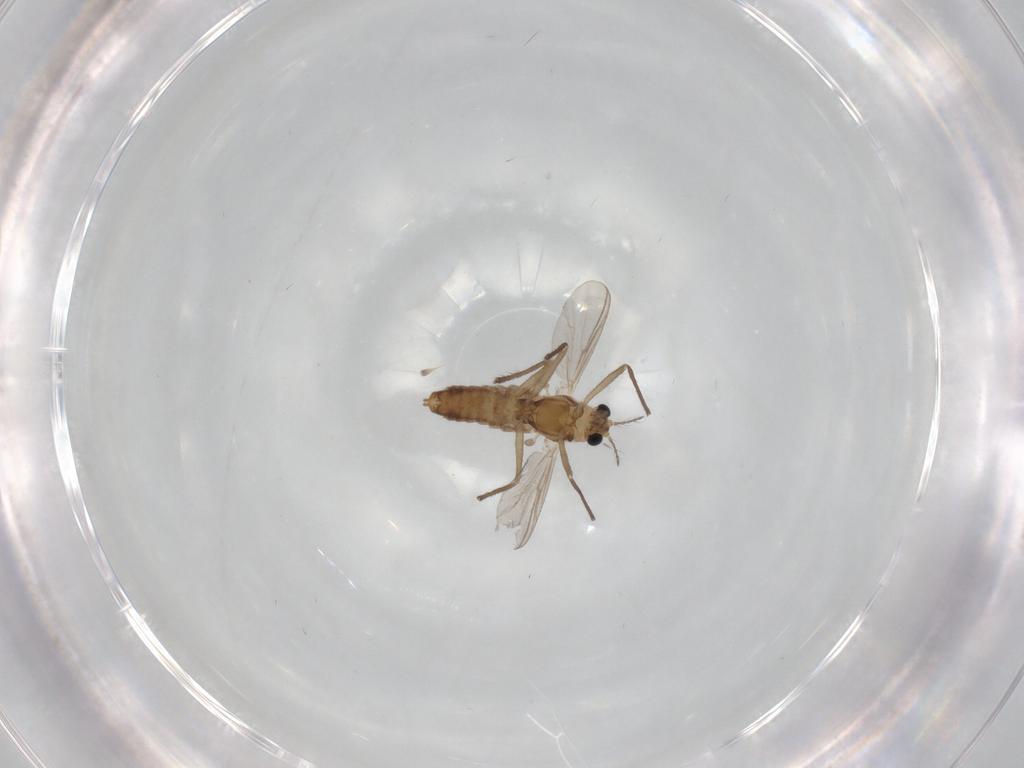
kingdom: Animalia
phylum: Arthropoda
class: Insecta
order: Diptera
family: Chironomidae
